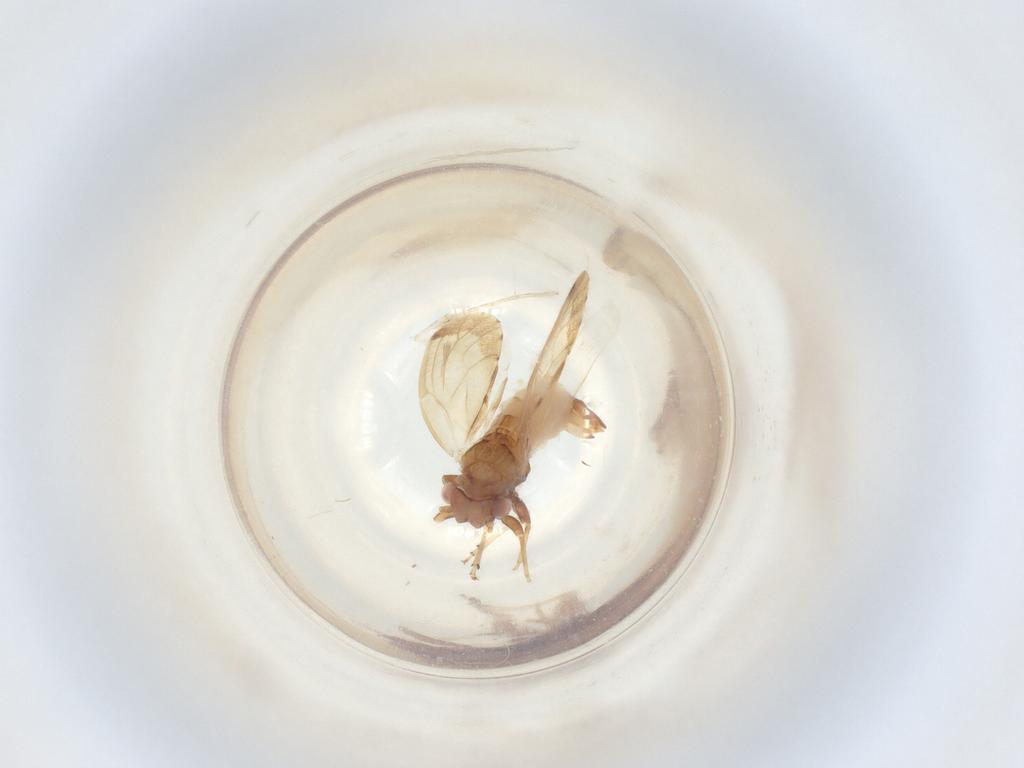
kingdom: Animalia
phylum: Arthropoda
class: Insecta
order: Lepidoptera
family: Pterophoridae
